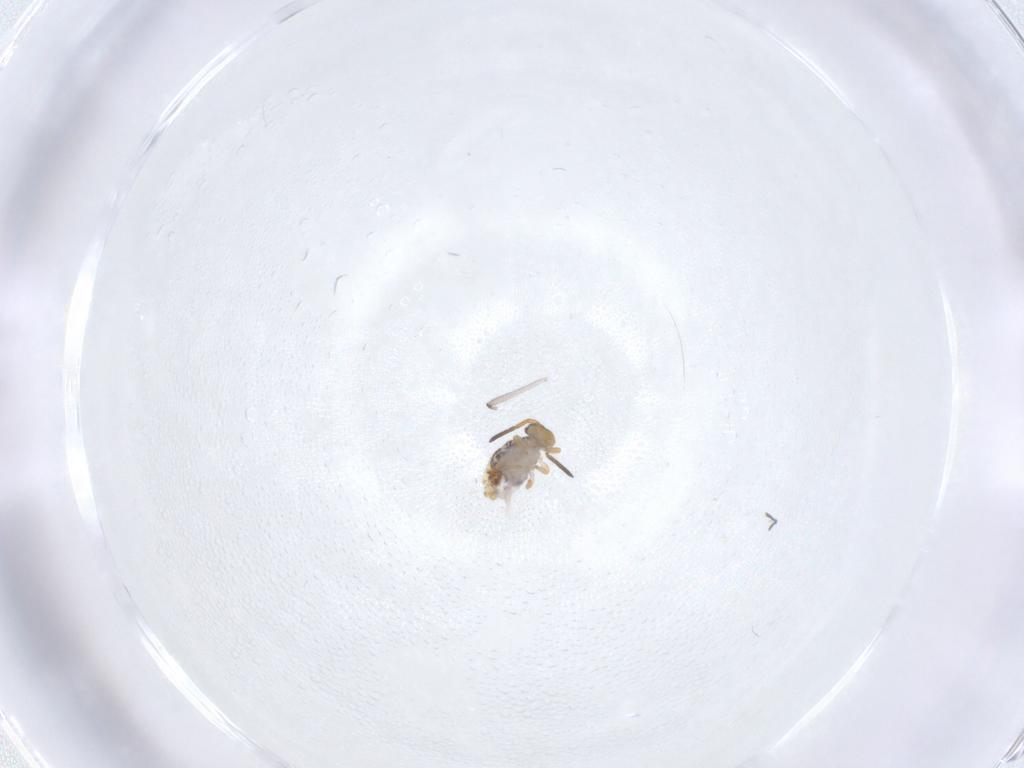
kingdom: Animalia
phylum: Arthropoda
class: Collembola
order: Symphypleona
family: Katiannidae
